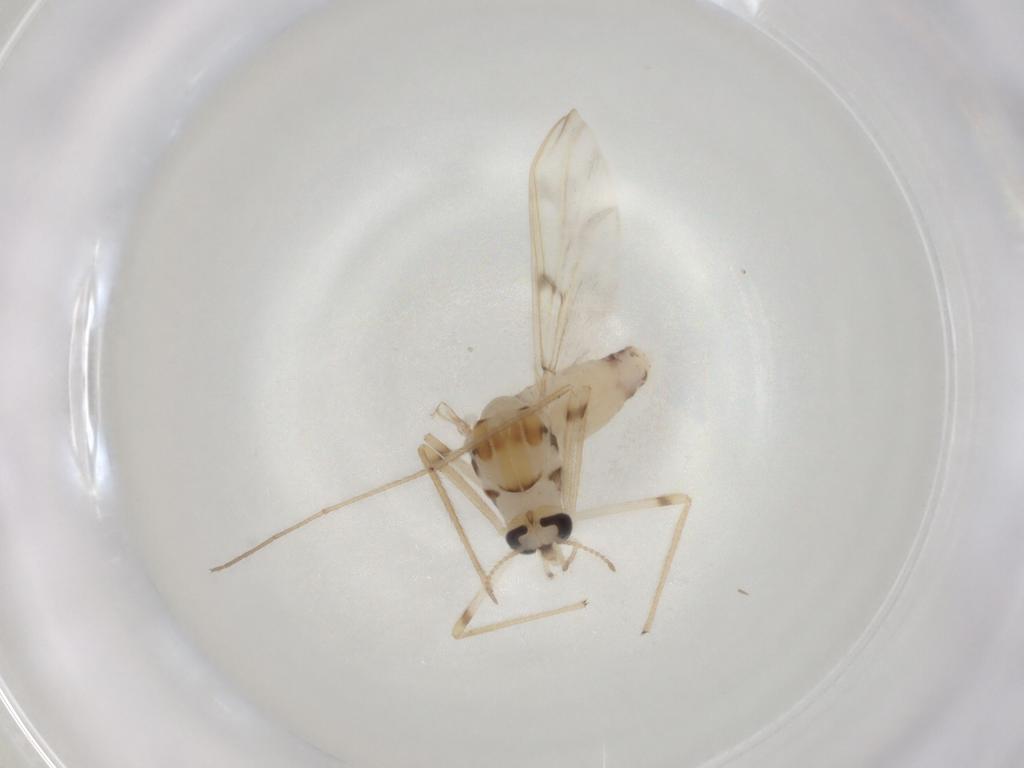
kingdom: Animalia
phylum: Arthropoda
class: Insecta
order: Diptera
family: Chironomidae
